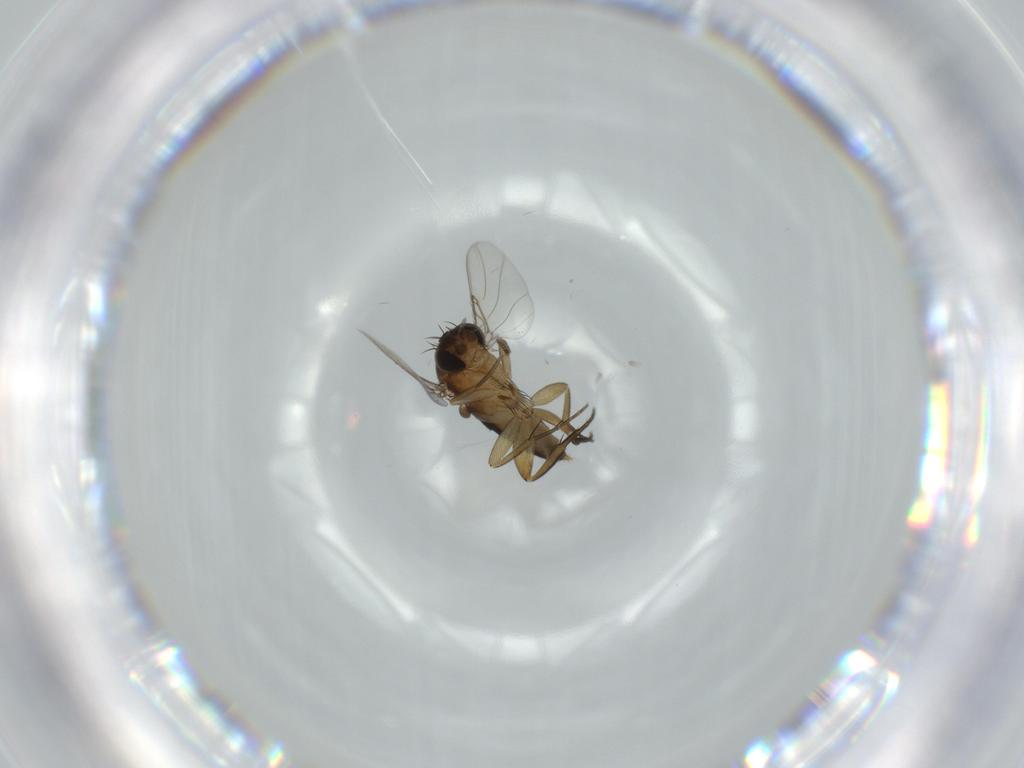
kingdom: Animalia
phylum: Arthropoda
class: Insecta
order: Diptera
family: Phoridae
